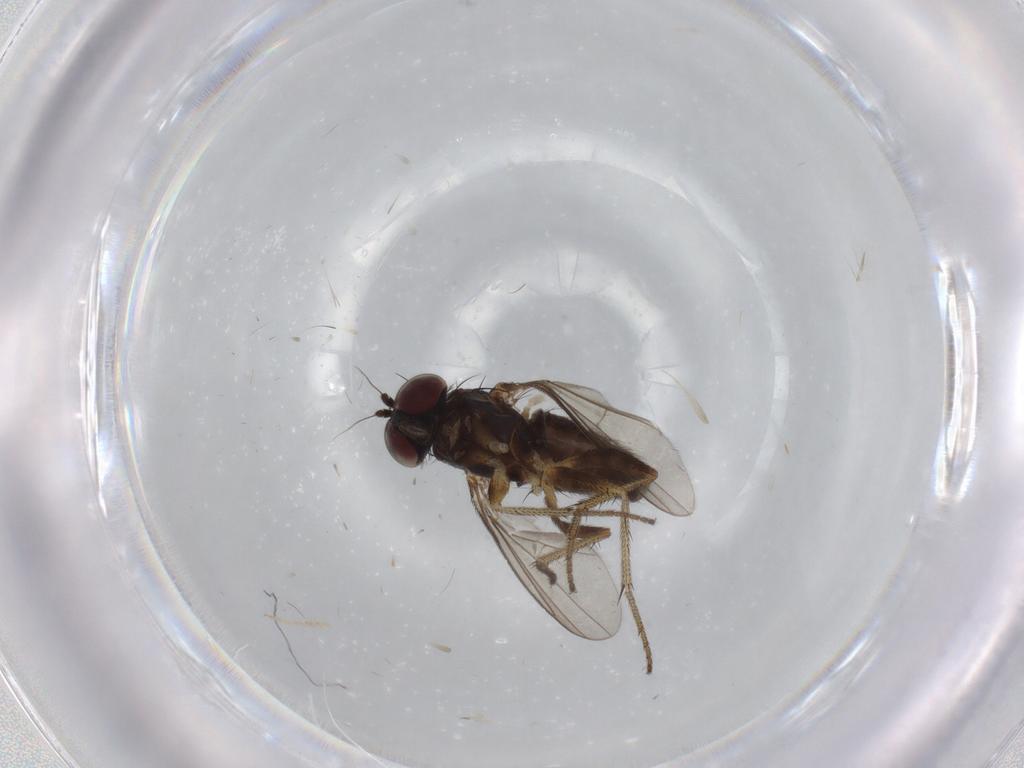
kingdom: Animalia
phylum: Arthropoda
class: Insecta
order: Diptera
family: Chironomidae
